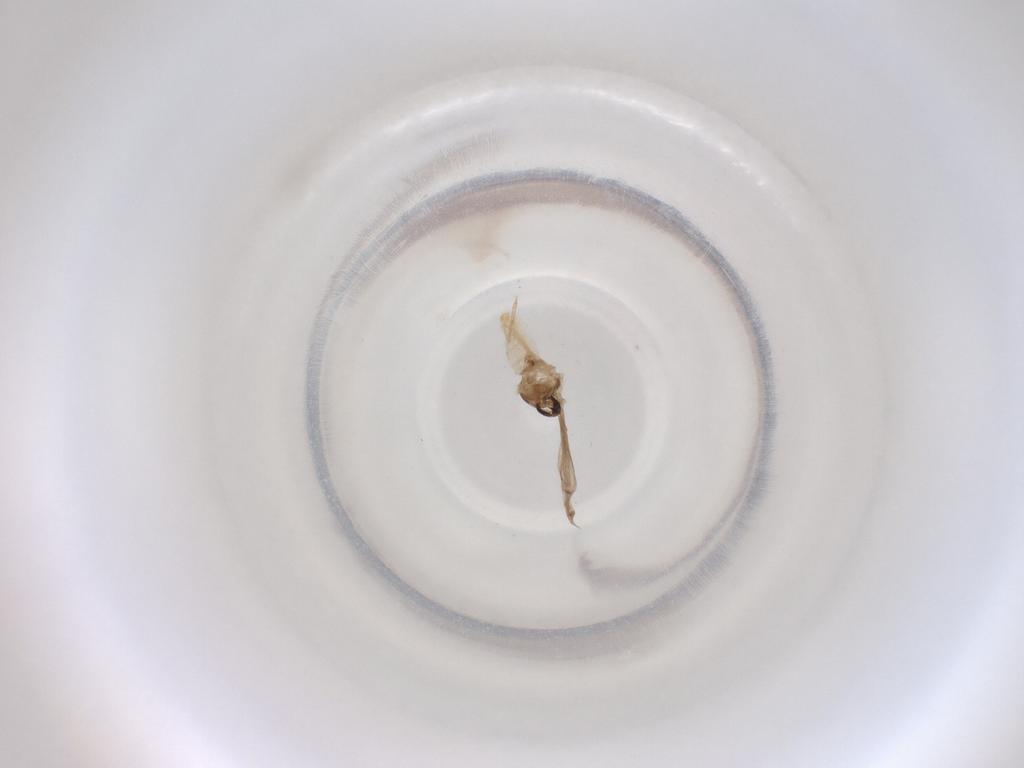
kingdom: Animalia
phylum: Arthropoda
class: Insecta
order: Diptera
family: Cecidomyiidae
